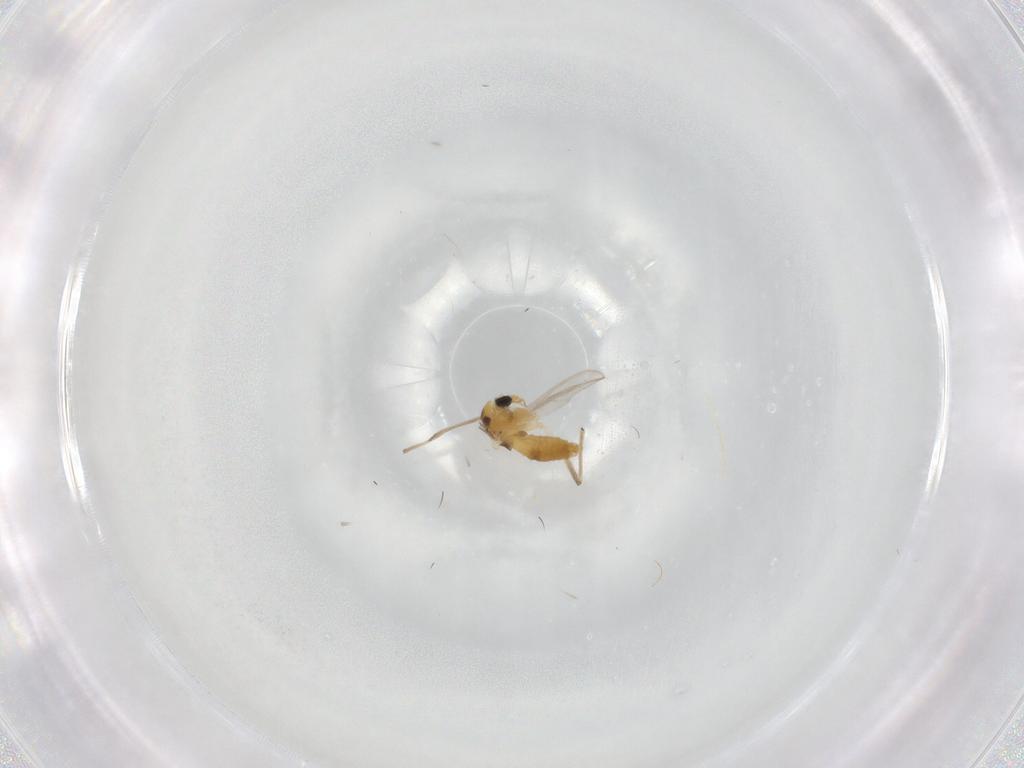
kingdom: Animalia
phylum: Arthropoda
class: Insecta
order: Diptera
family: Chironomidae
